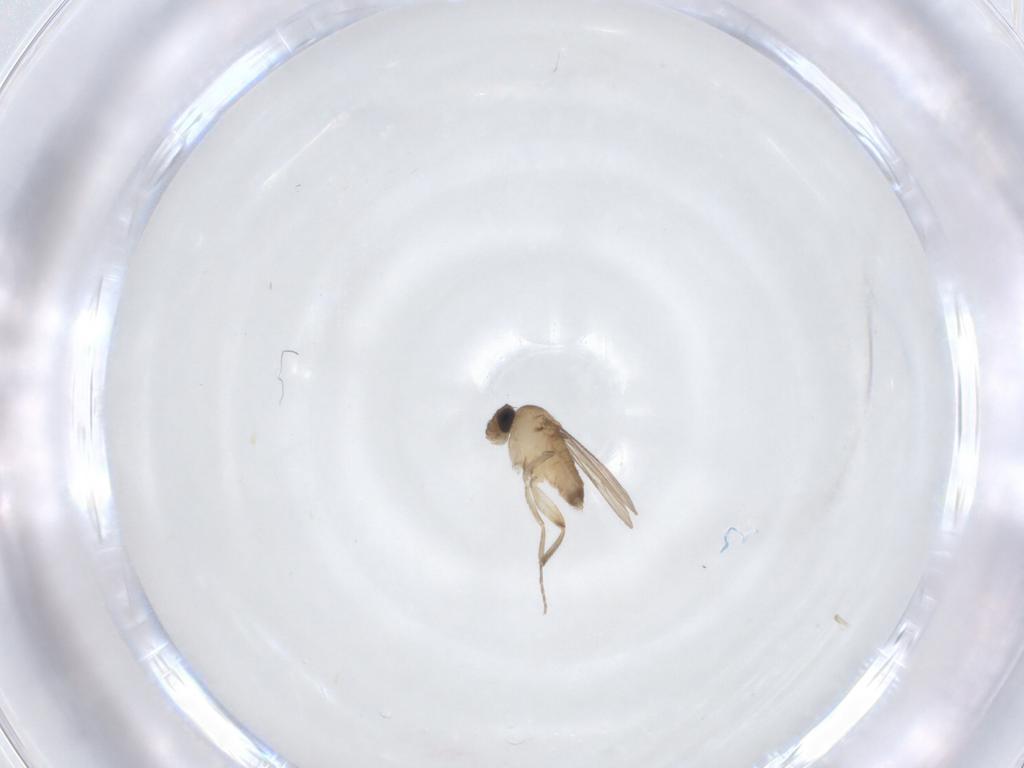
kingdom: Animalia
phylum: Arthropoda
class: Insecta
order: Diptera
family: Phoridae
